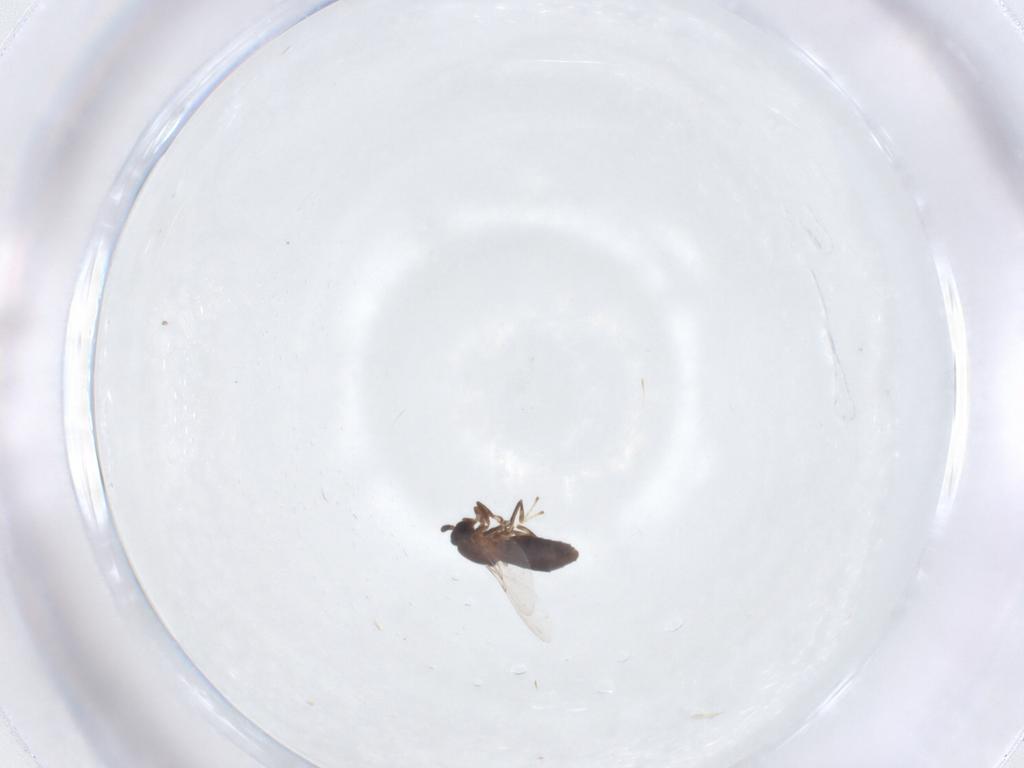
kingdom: Animalia
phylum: Arthropoda
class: Insecta
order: Diptera
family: Scatopsidae
